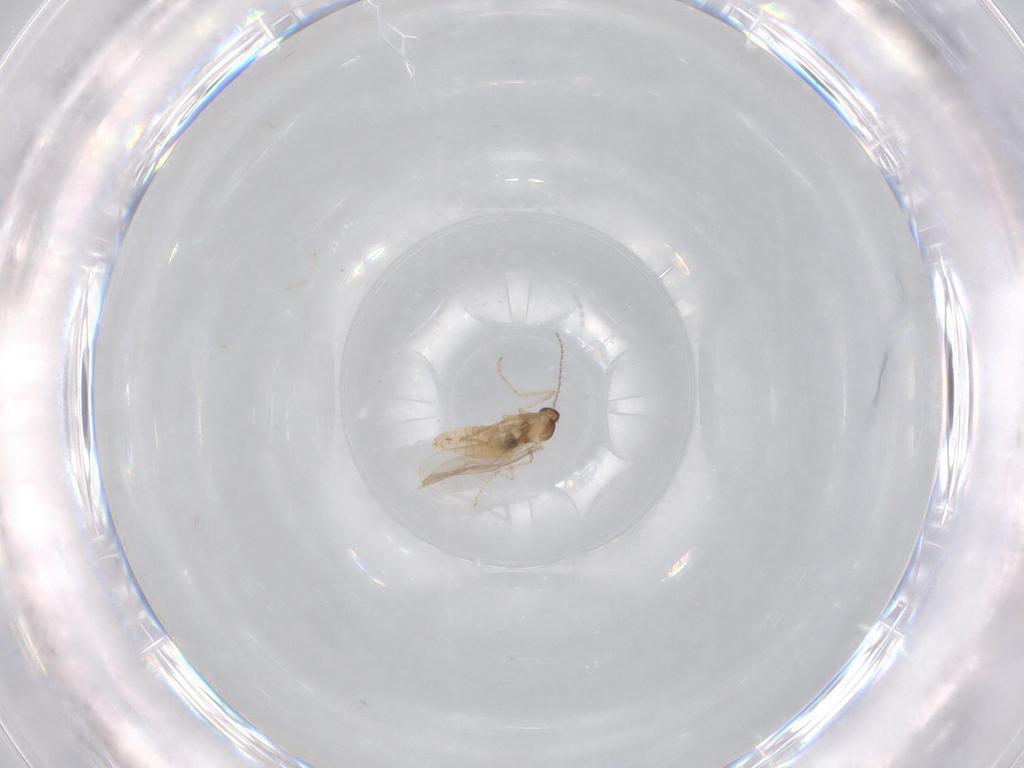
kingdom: Animalia
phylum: Arthropoda
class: Insecta
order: Diptera
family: Cecidomyiidae
